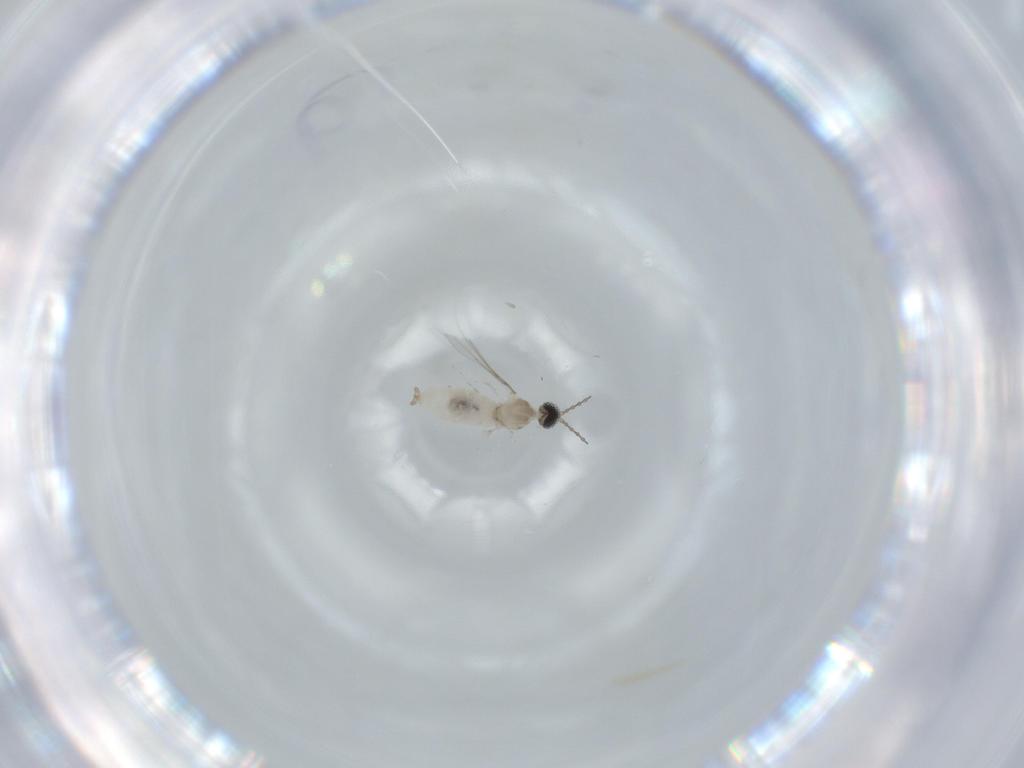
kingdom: Animalia
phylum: Arthropoda
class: Insecta
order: Diptera
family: Cecidomyiidae
